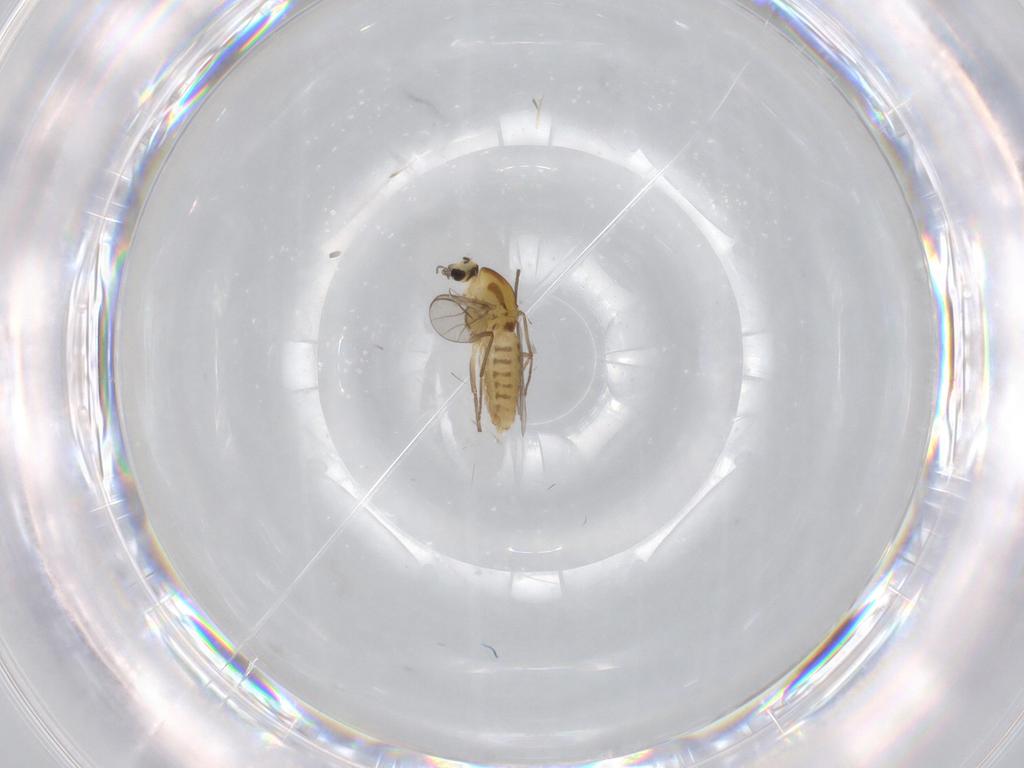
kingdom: Animalia
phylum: Arthropoda
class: Insecta
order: Diptera
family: Chironomidae
